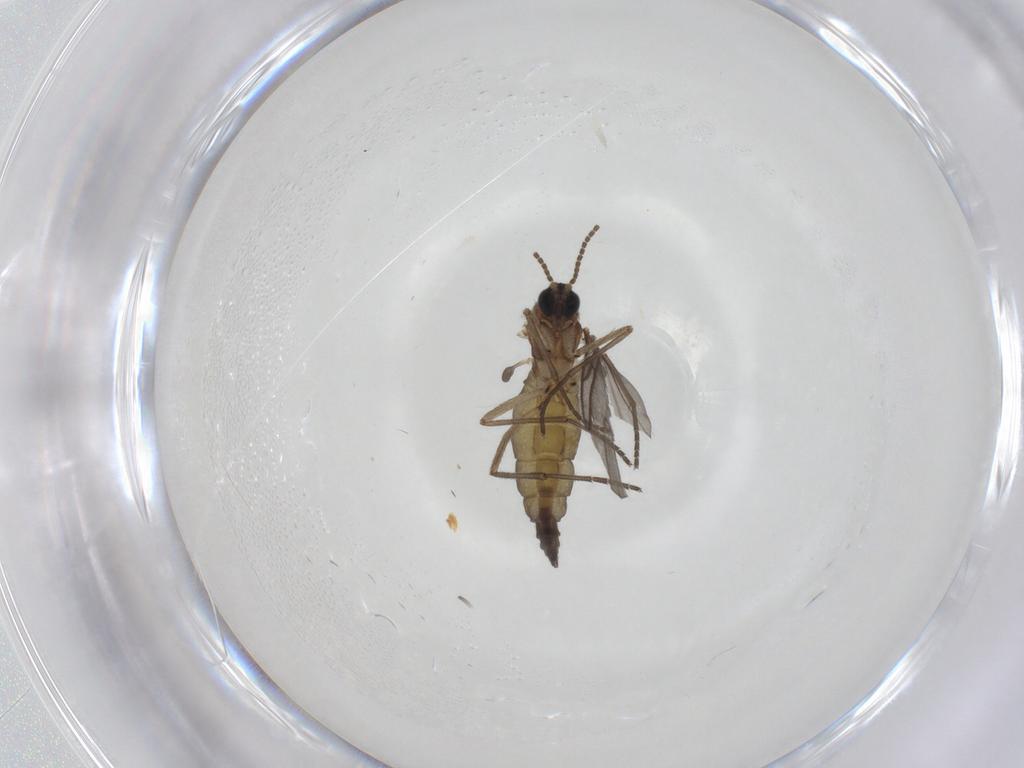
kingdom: Animalia
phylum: Arthropoda
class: Insecta
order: Diptera
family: Sciaridae
